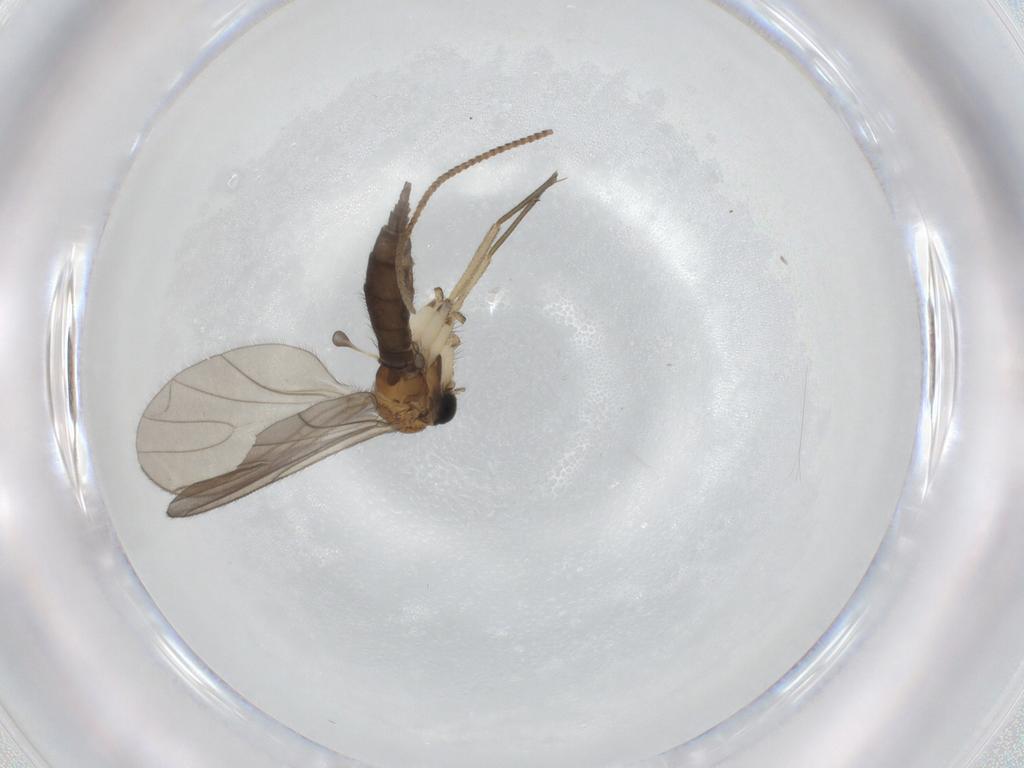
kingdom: Animalia
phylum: Arthropoda
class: Insecta
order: Diptera
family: Sciaridae
